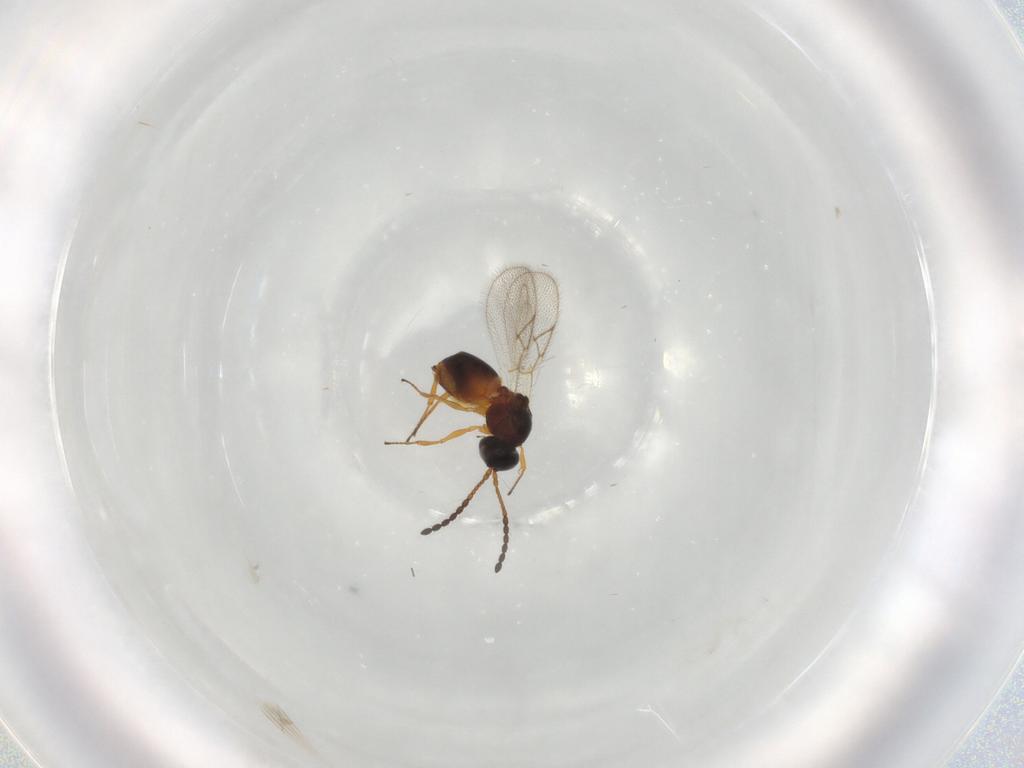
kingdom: Animalia
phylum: Arthropoda
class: Insecta
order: Hymenoptera
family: Figitidae
